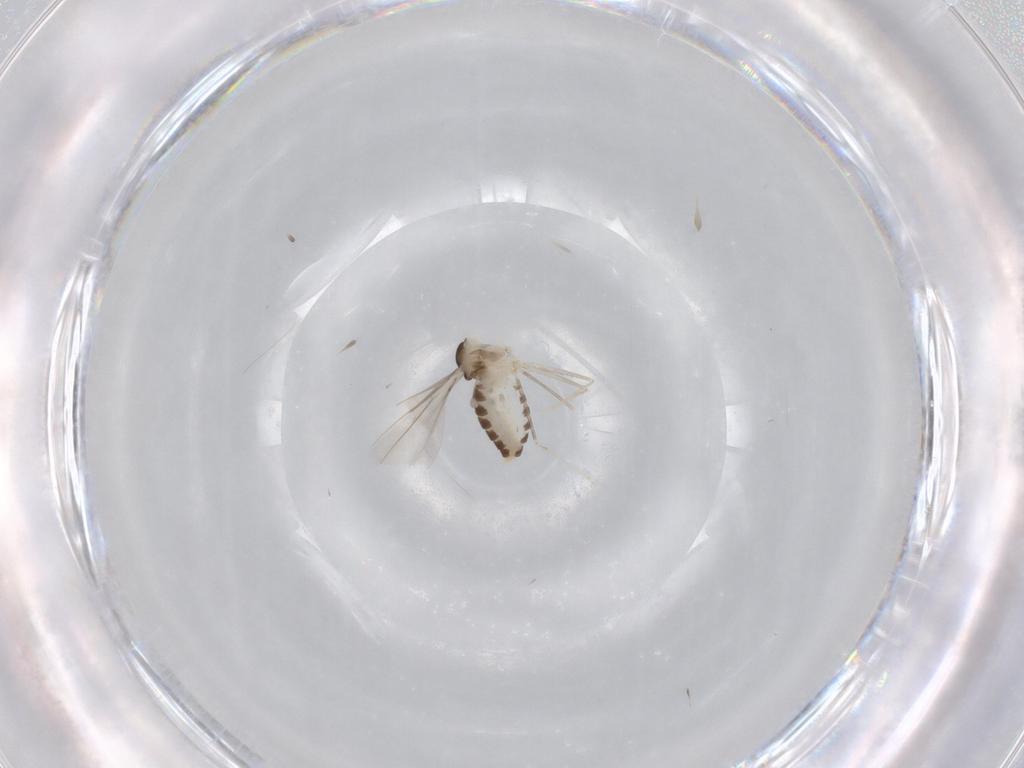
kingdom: Animalia
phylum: Arthropoda
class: Insecta
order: Diptera
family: Cecidomyiidae
